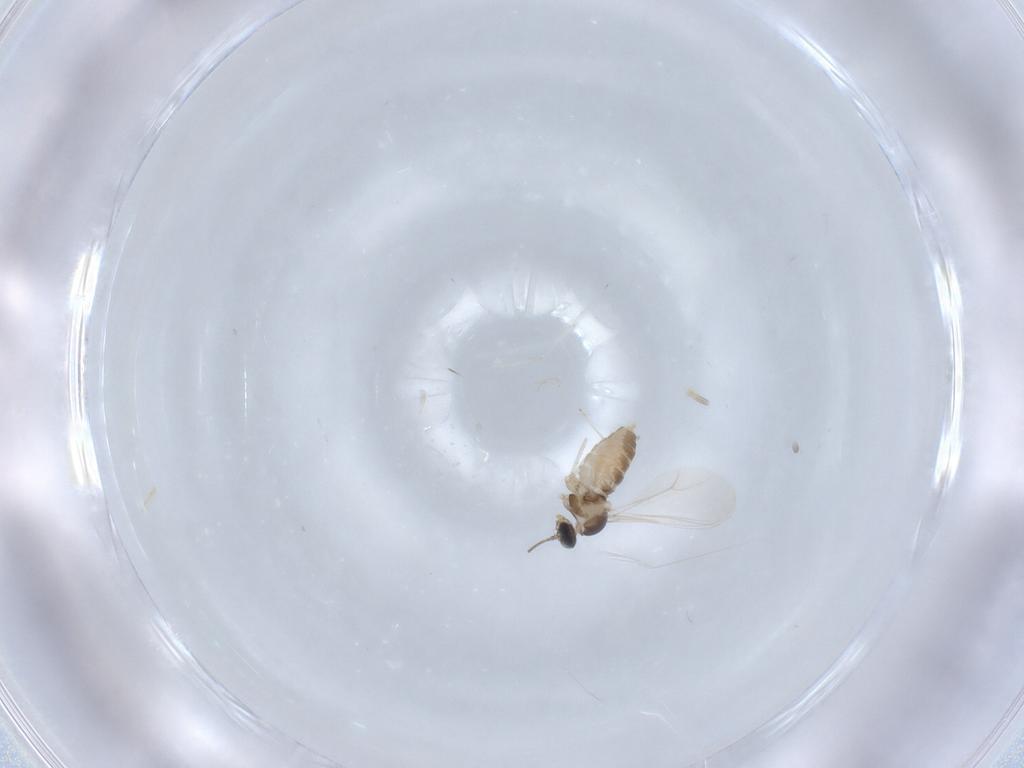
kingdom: Animalia
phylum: Arthropoda
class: Insecta
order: Diptera
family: Cecidomyiidae
